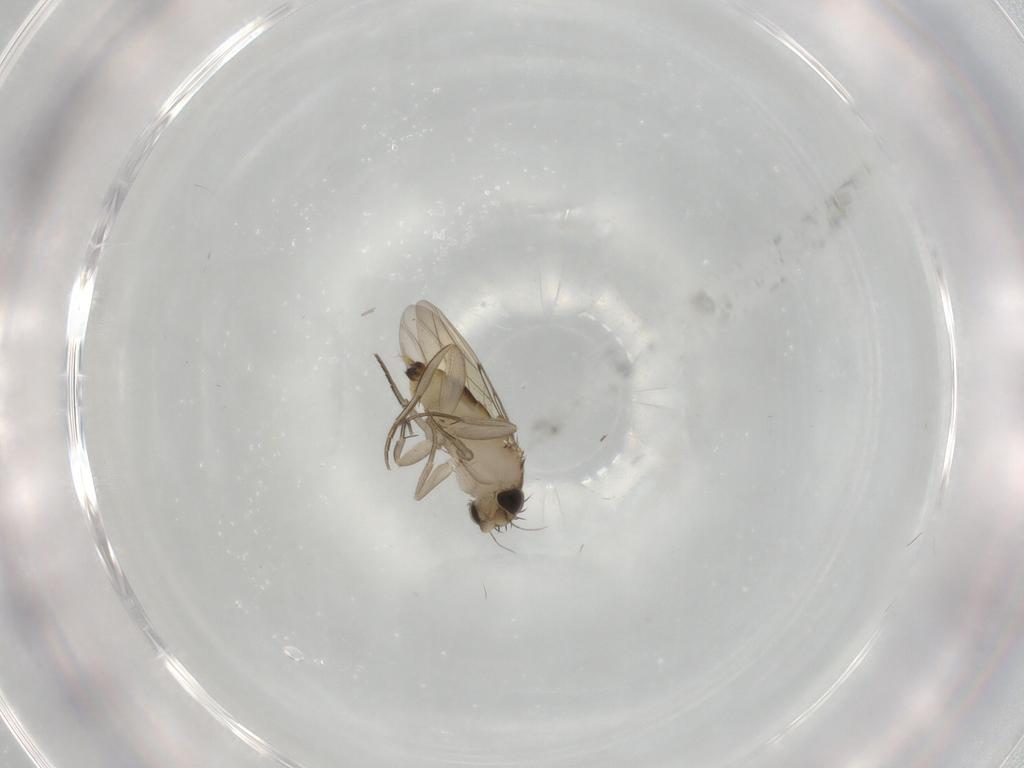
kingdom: Animalia
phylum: Arthropoda
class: Insecta
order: Diptera
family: Phoridae
